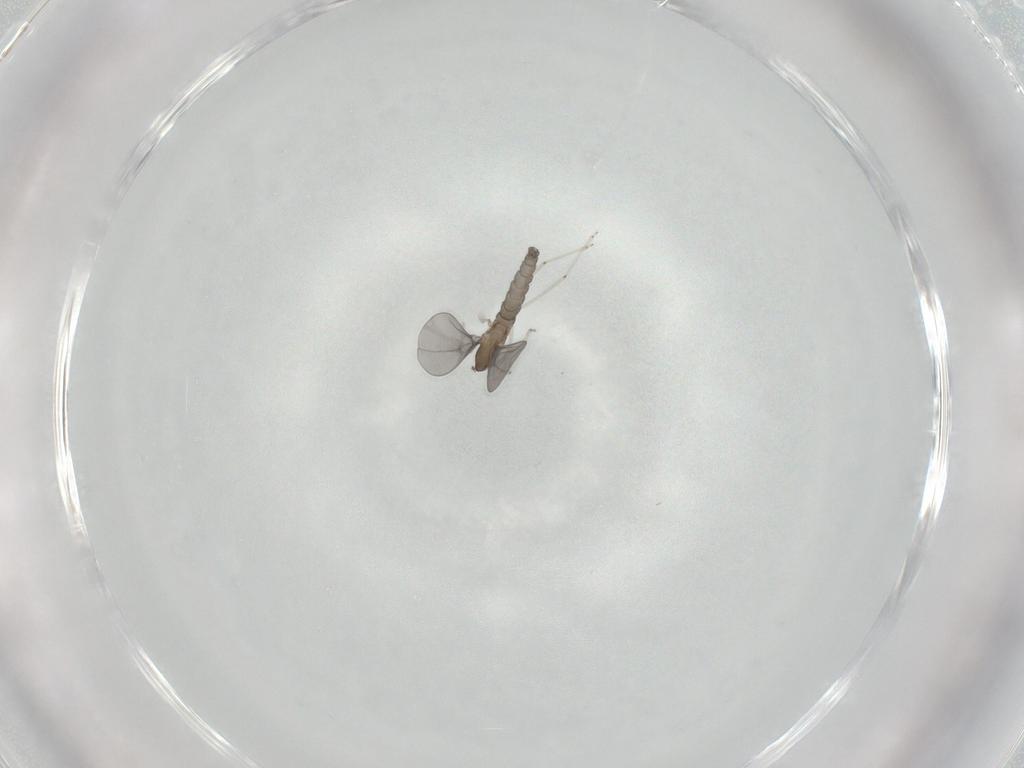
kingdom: Animalia
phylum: Arthropoda
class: Insecta
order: Diptera
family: Cecidomyiidae
